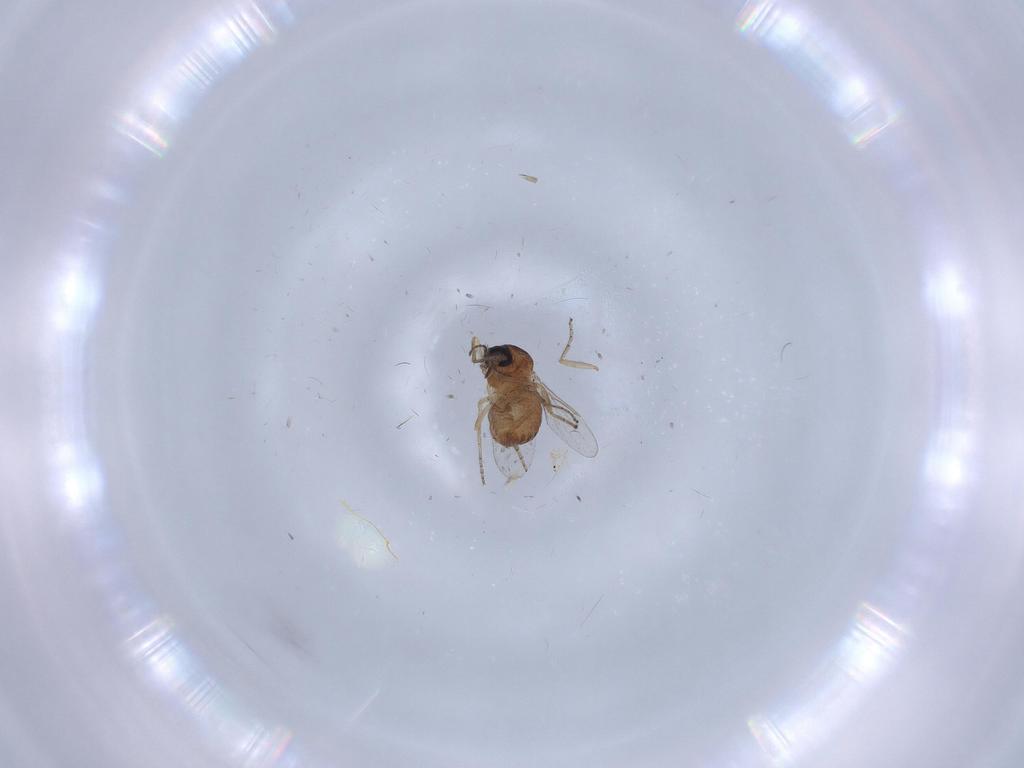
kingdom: Animalia
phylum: Arthropoda
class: Insecta
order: Diptera
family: Ceratopogonidae
